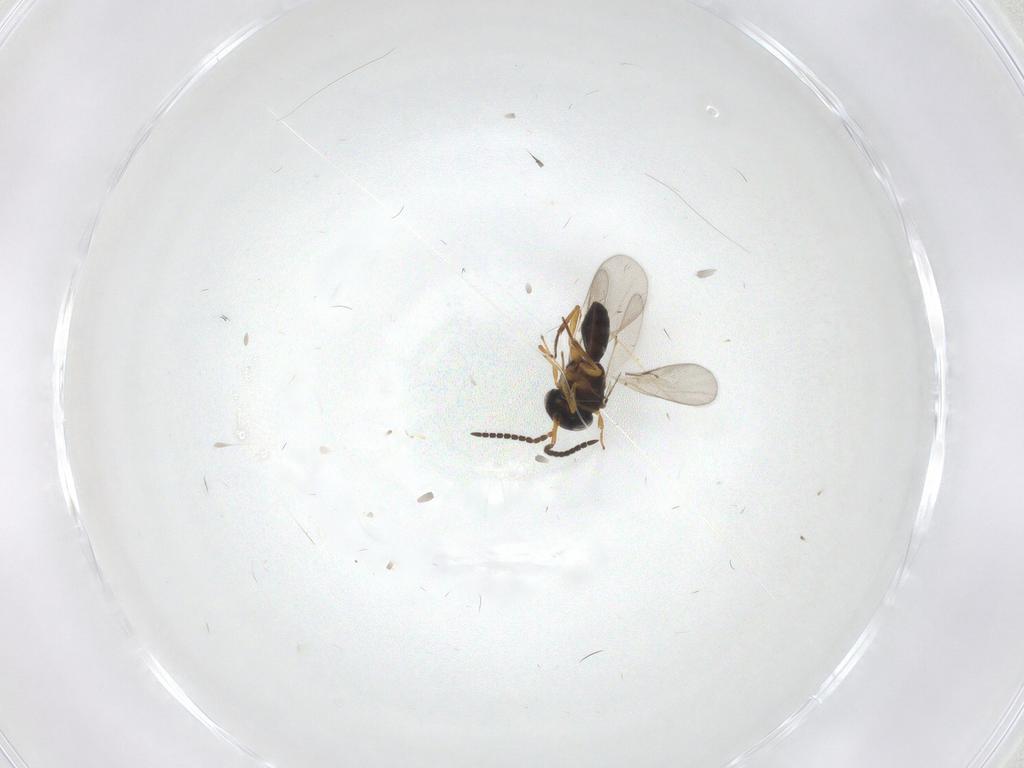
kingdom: Animalia
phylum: Arthropoda
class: Insecta
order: Hymenoptera
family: Scelionidae
